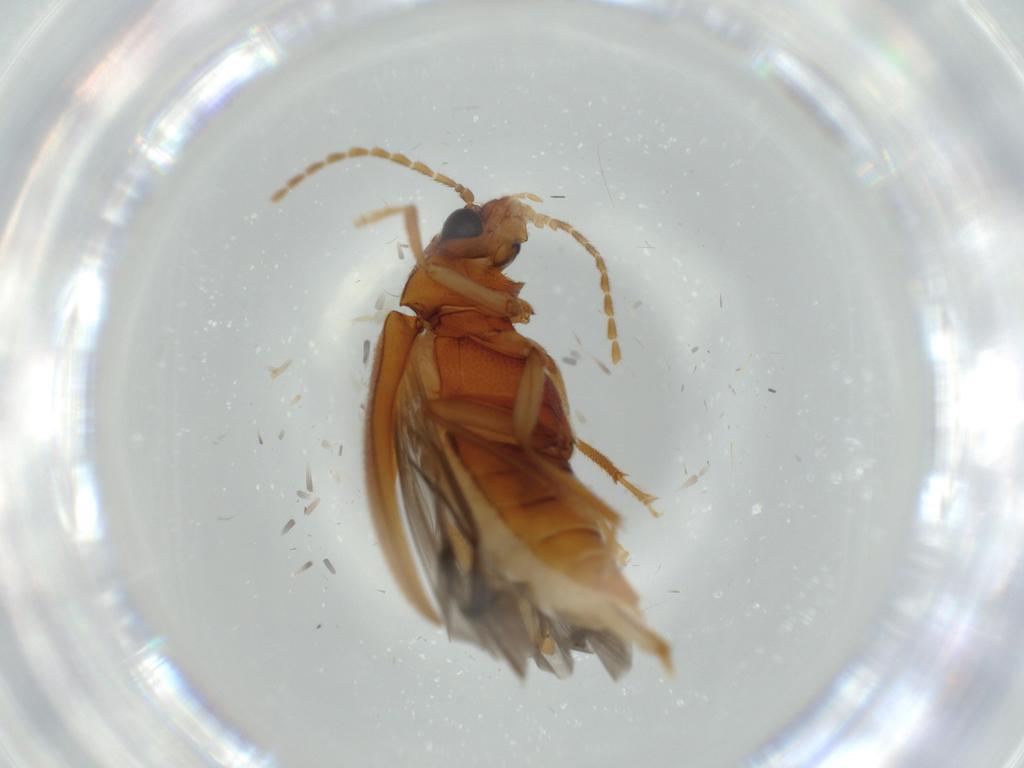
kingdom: Animalia
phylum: Arthropoda
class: Insecta
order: Coleoptera
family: Ptilodactylidae
